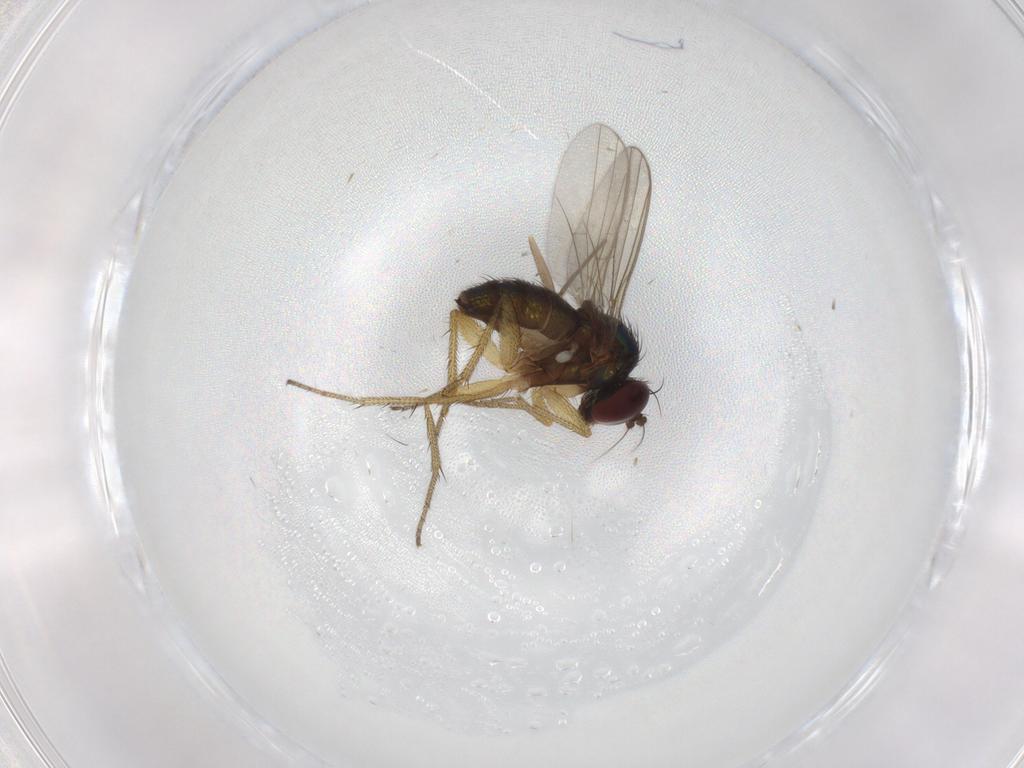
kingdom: Animalia
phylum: Arthropoda
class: Insecta
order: Diptera
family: Chironomidae
